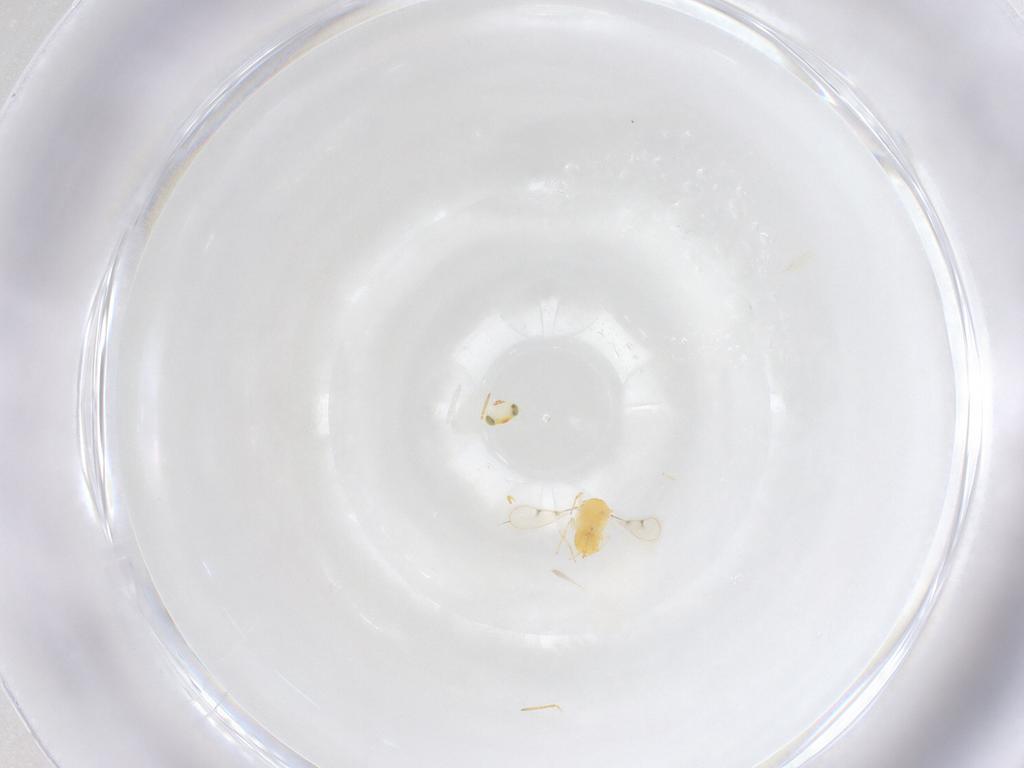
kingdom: Animalia
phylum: Arthropoda
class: Insecta
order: Hymenoptera
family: Aphelinidae
